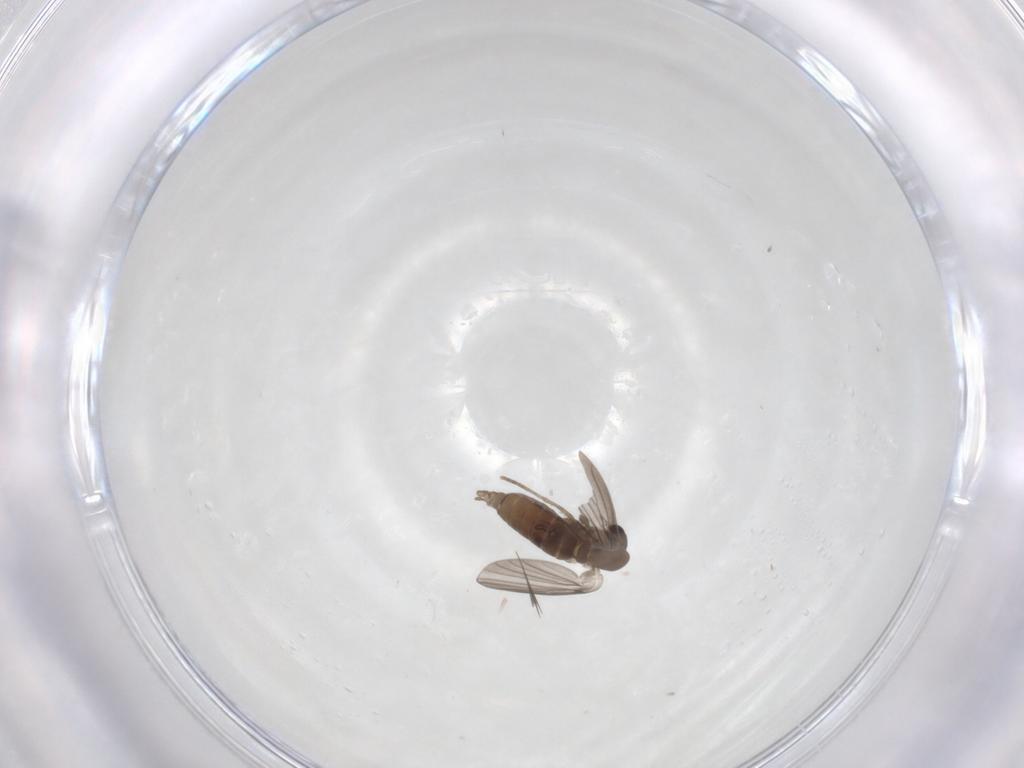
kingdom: Animalia
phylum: Arthropoda
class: Insecta
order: Diptera
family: Psychodidae
